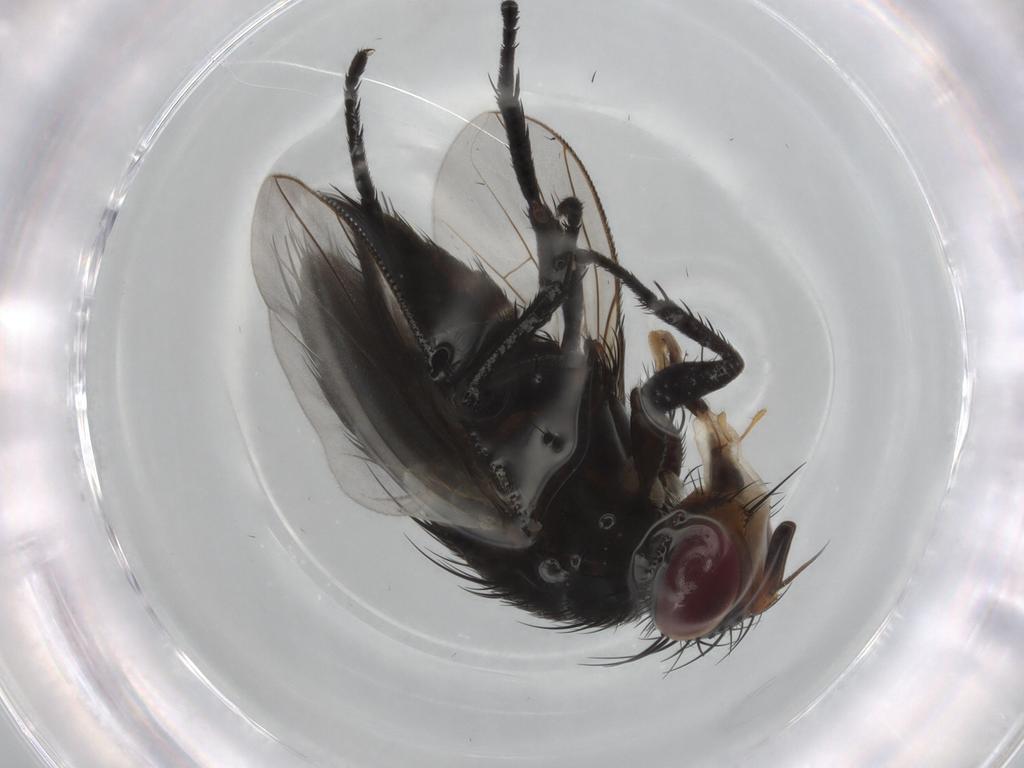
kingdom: Animalia
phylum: Arthropoda
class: Insecta
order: Diptera
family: Tachinidae
